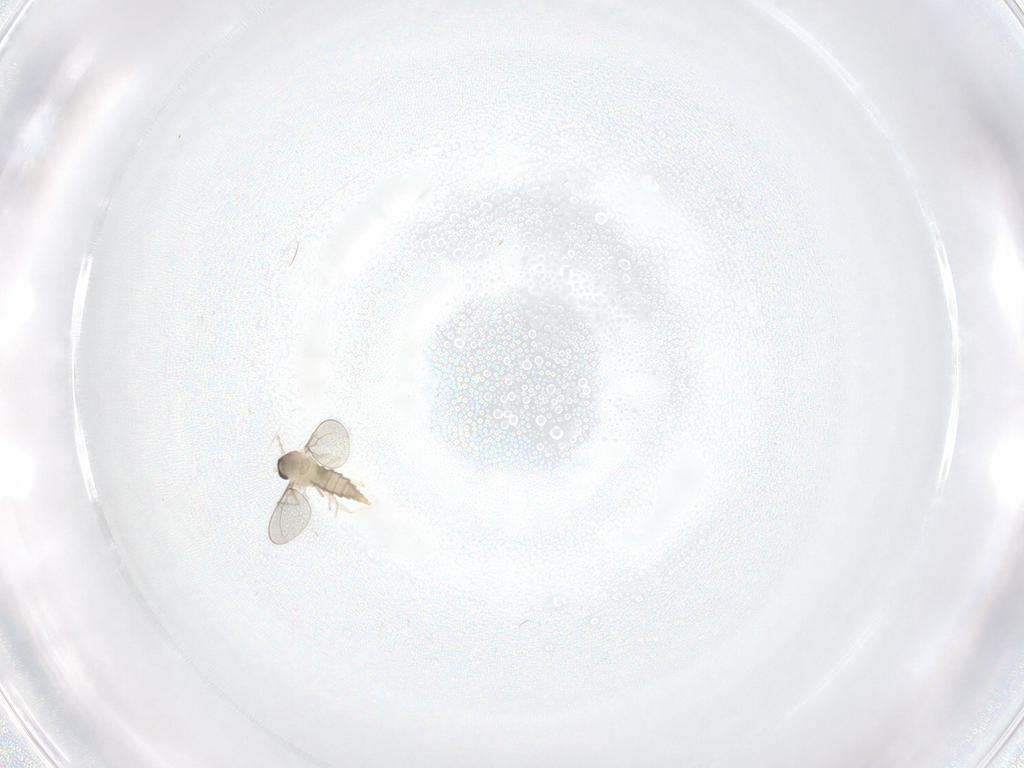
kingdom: Animalia
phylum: Arthropoda
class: Insecta
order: Diptera
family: Cecidomyiidae
